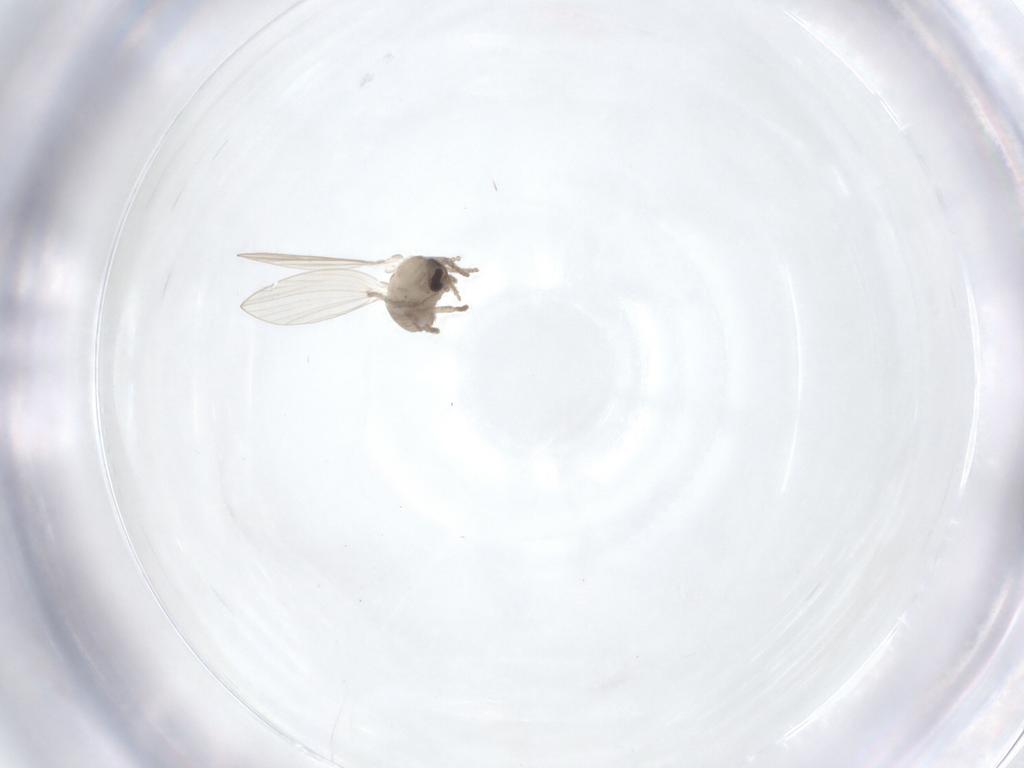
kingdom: Animalia
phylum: Arthropoda
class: Insecta
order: Diptera
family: Psychodidae
